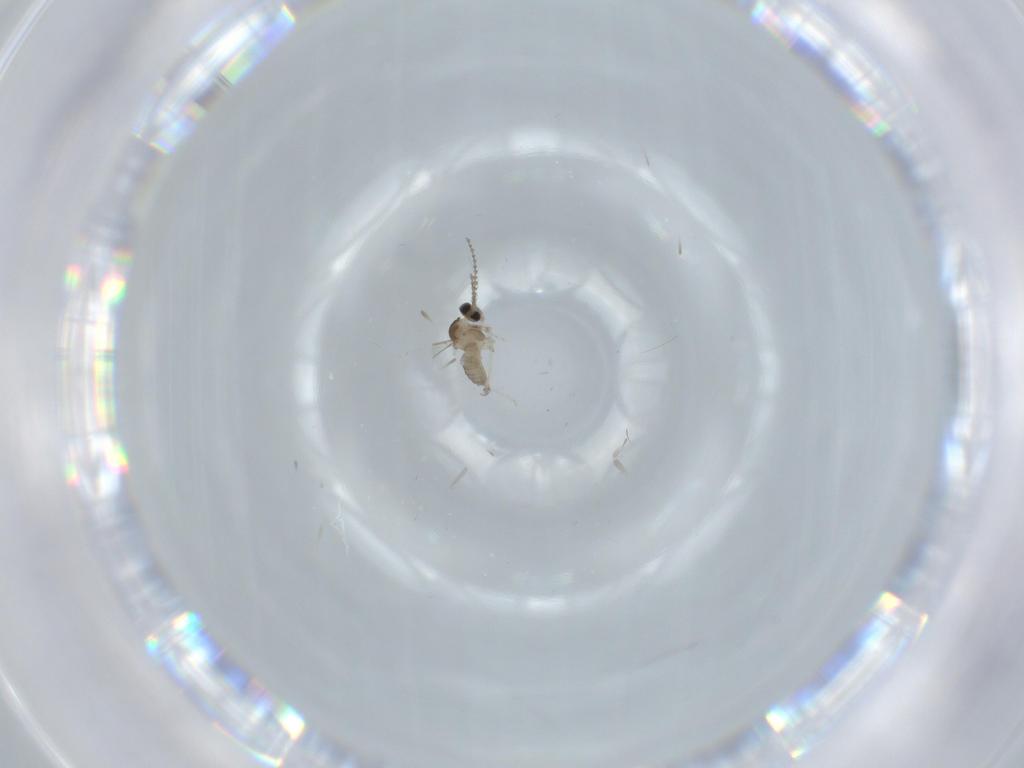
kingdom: Animalia
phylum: Arthropoda
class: Insecta
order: Diptera
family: Cecidomyiidae
